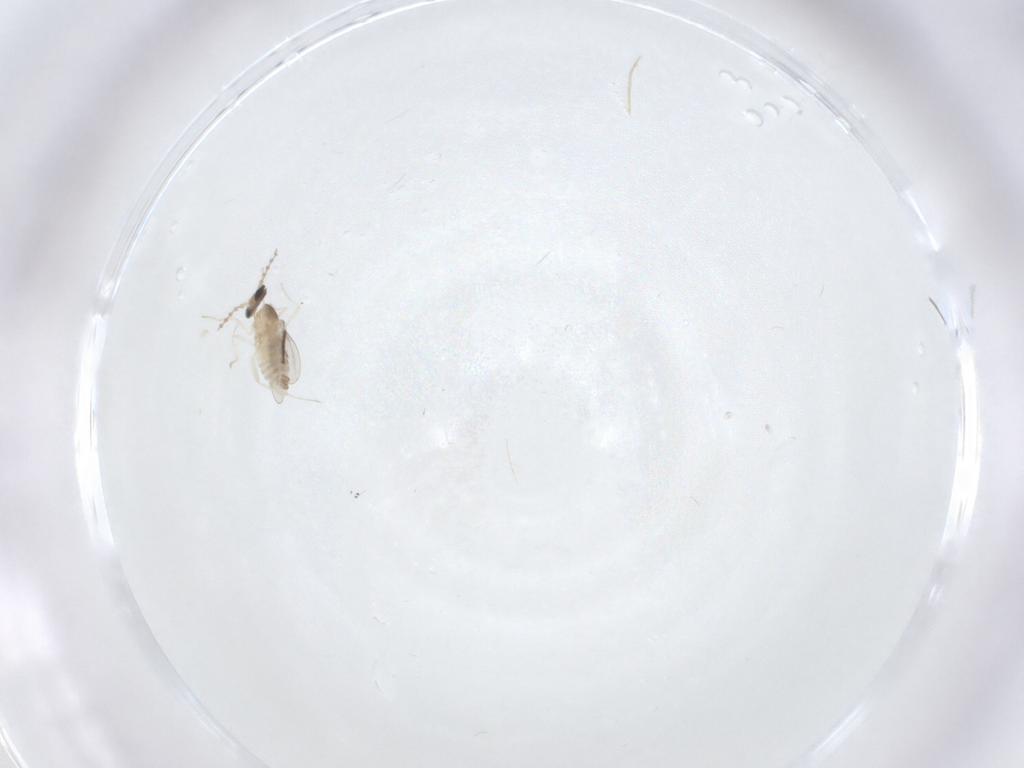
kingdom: Animalia
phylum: Arthropoda
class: Insecta
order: Diptera
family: Cecidomyiidae
